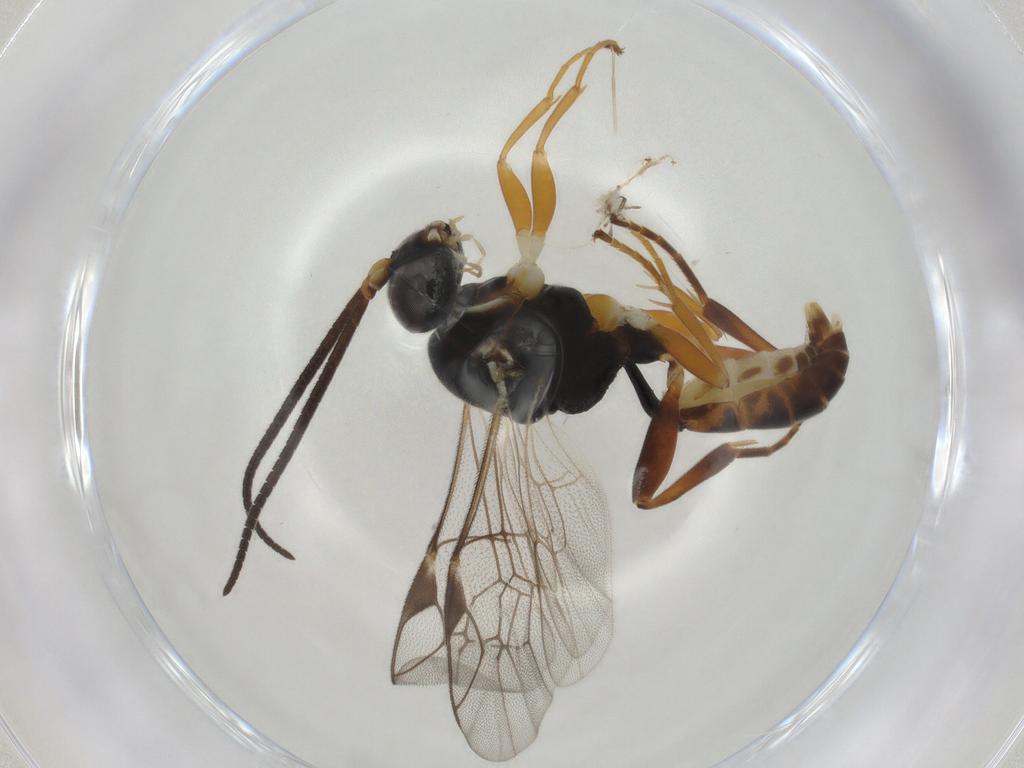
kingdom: Animalia
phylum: Arthropoda
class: Insecta
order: Hymenoptera
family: Ichneumonidae
